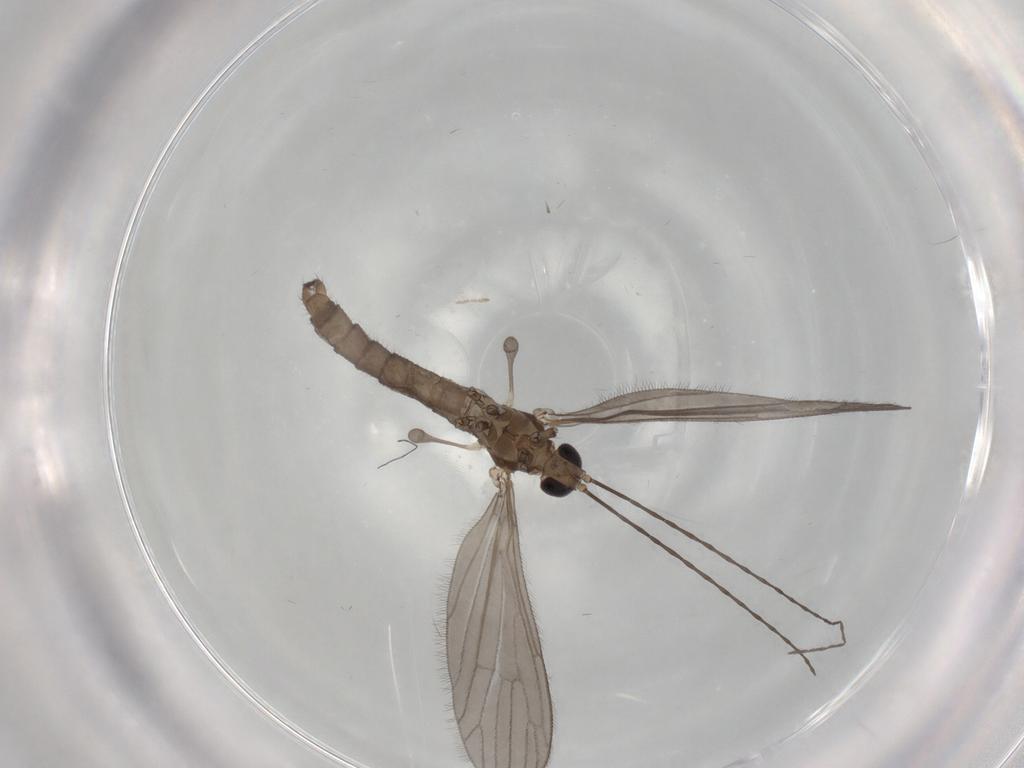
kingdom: Animalia
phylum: Arthropoda
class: Insecta
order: Diptera
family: Limoniidae
